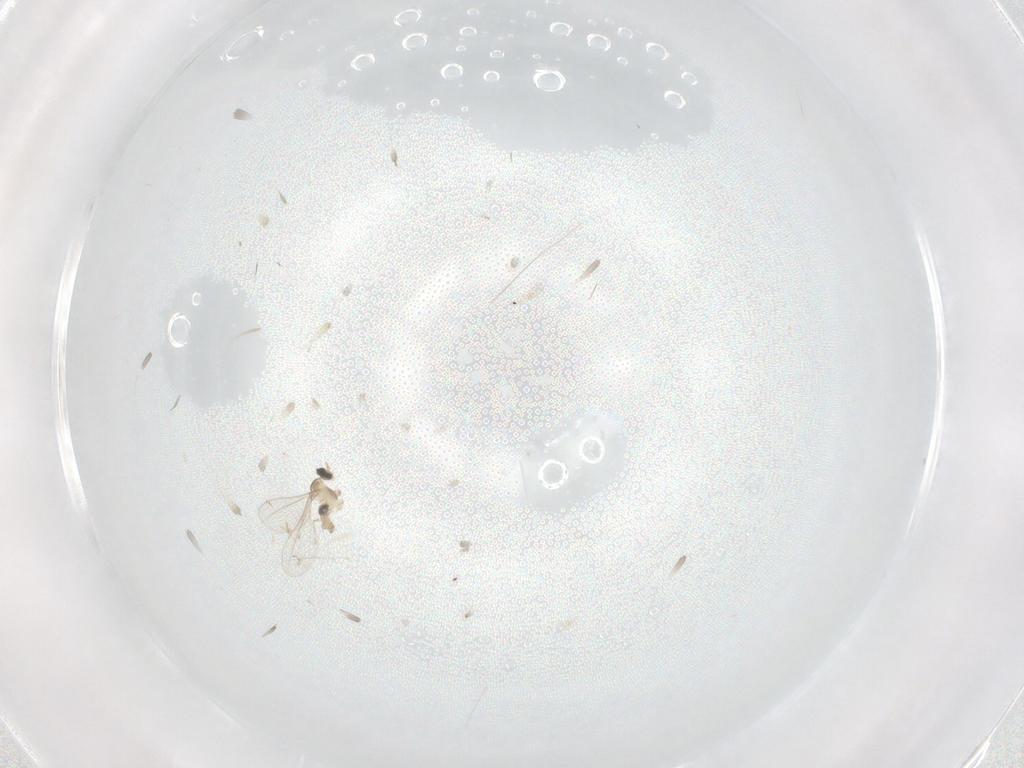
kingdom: Animalia
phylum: Arthropoda
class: Insecta
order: Diptera
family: Cecidomyiidae
